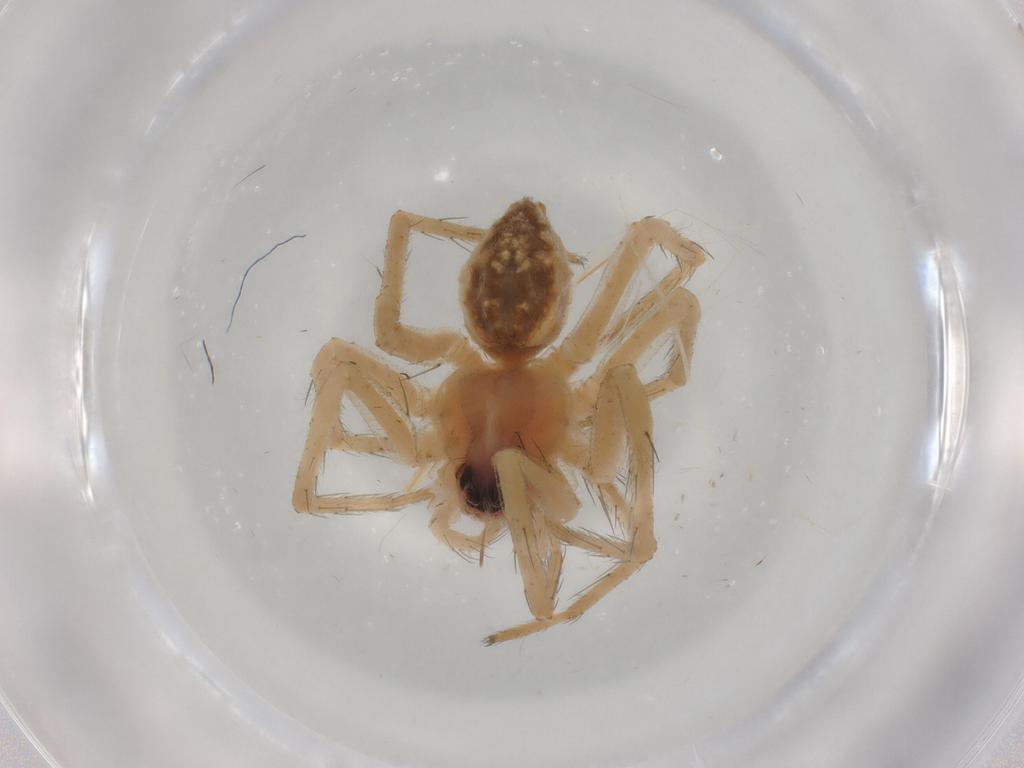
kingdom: Animalia
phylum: Arthropoda
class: Arachnida
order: Araneae
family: Pisauridae
